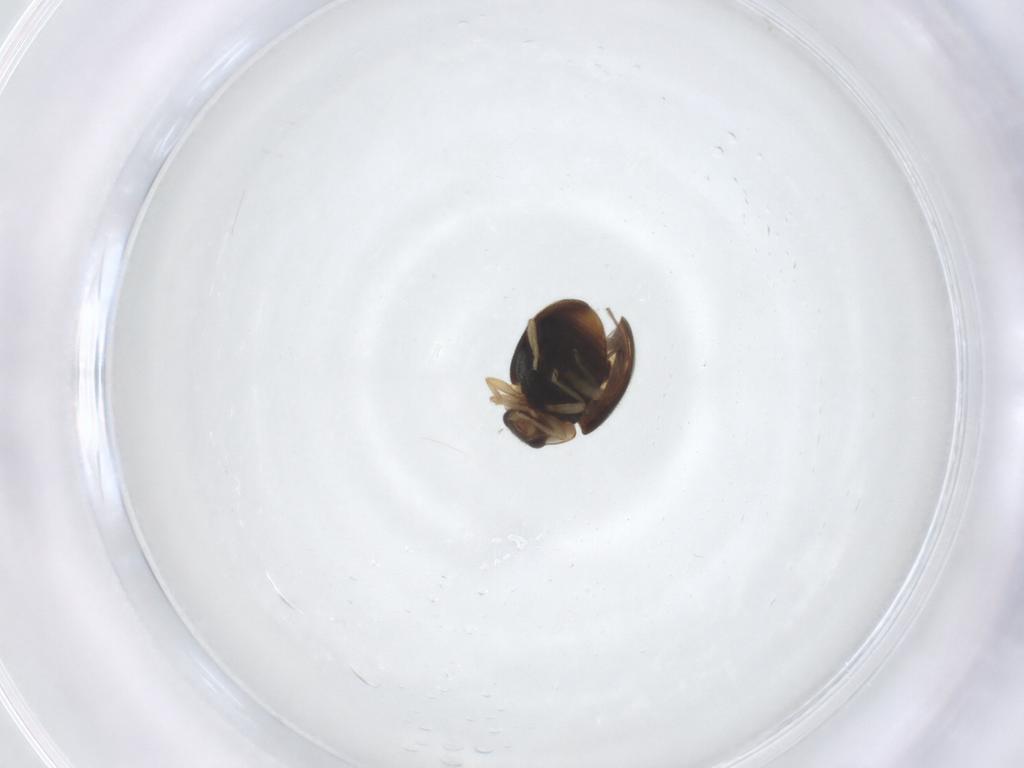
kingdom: Animalia
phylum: Arthropoda
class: Insecta
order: Coleoptera
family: Coccinellidae
